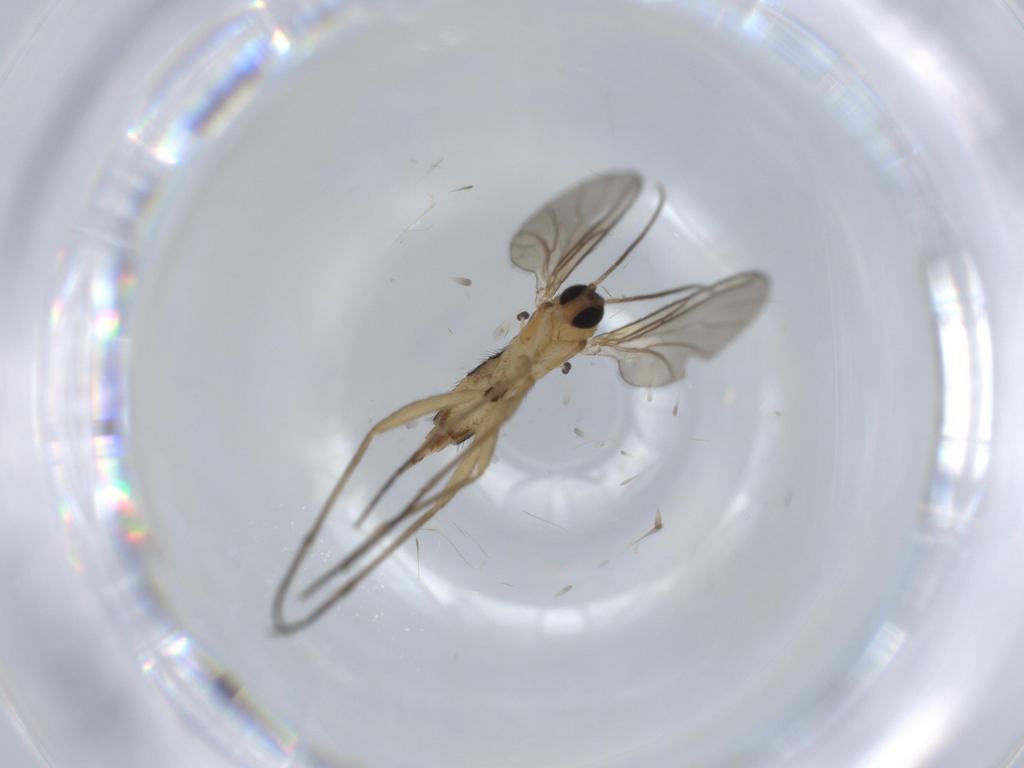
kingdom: Animalia
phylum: Arthropoda
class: Insecta
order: Diptera
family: Sciaridae
